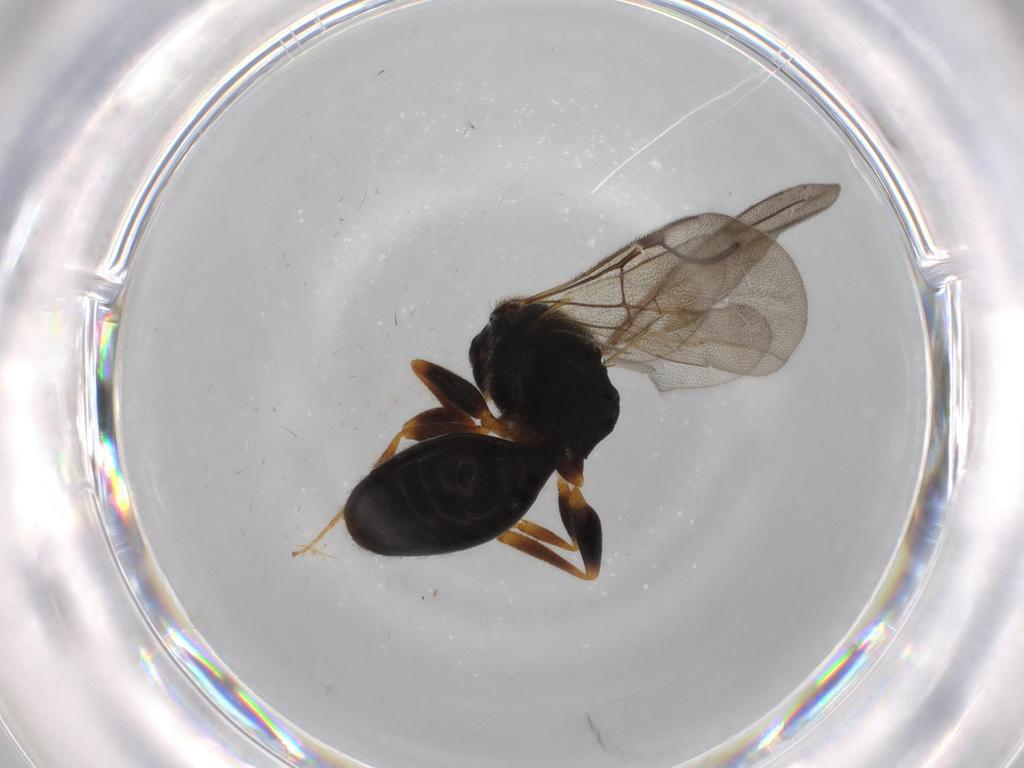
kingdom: Animalia
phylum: Arthropoda
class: Insecta
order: Hymenoptera
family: Bethylidae
